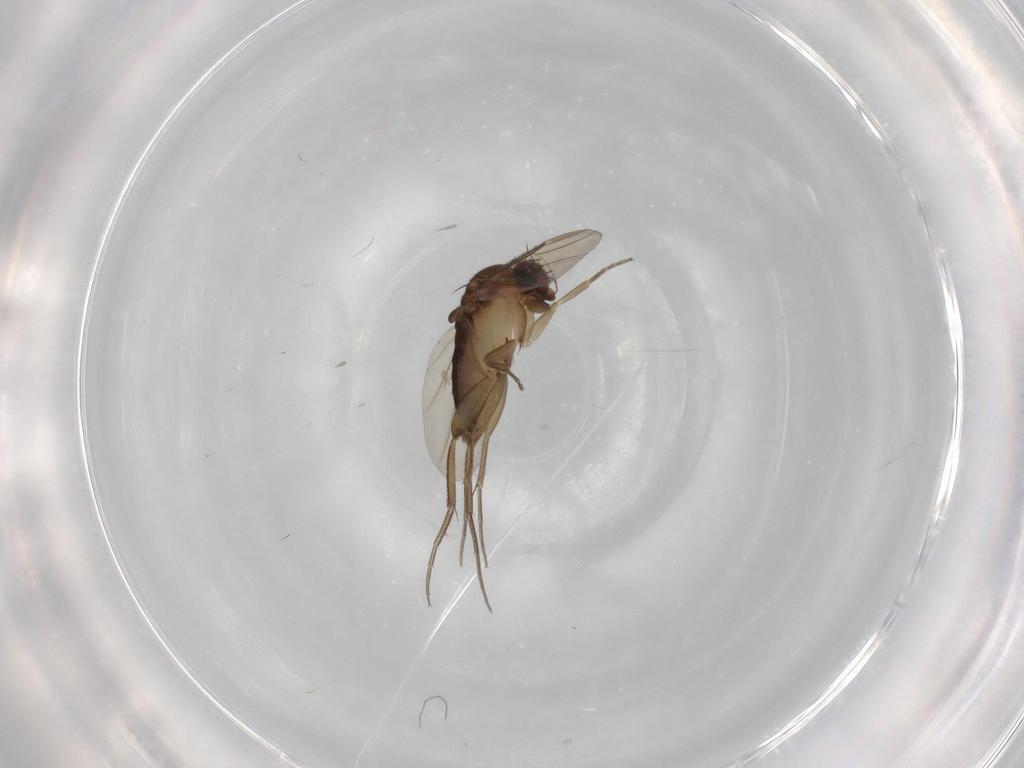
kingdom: Animalia
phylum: Arthropoda
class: Insecta
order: Diptera
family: Phoridae
